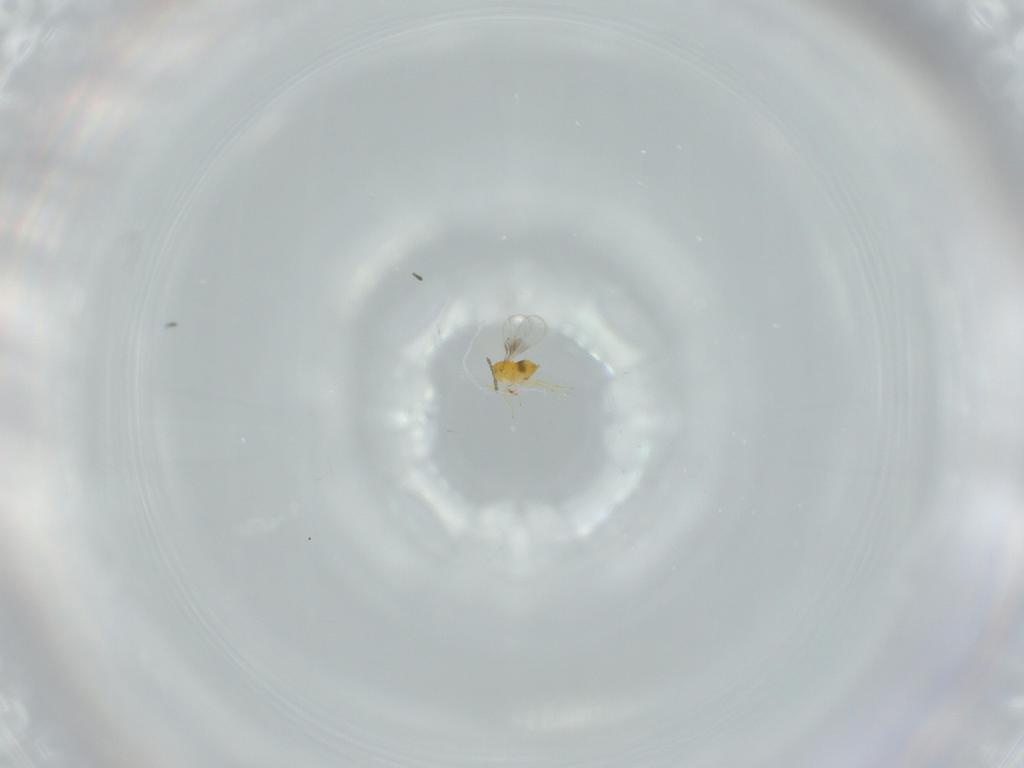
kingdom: Animalia
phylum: Arthropoda
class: Insecta
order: Hymenoptera
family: Trichogrammatidae
